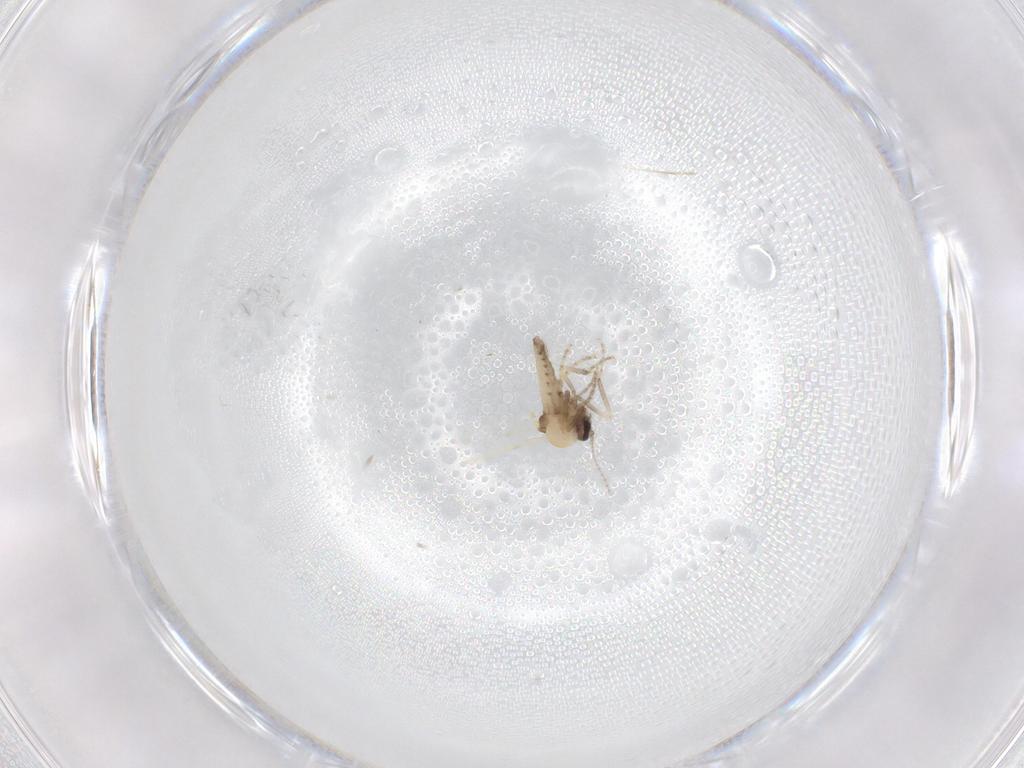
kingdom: Animalia
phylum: Arthropoda
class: Insecta
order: Diptera
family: Ceratopogonidae
